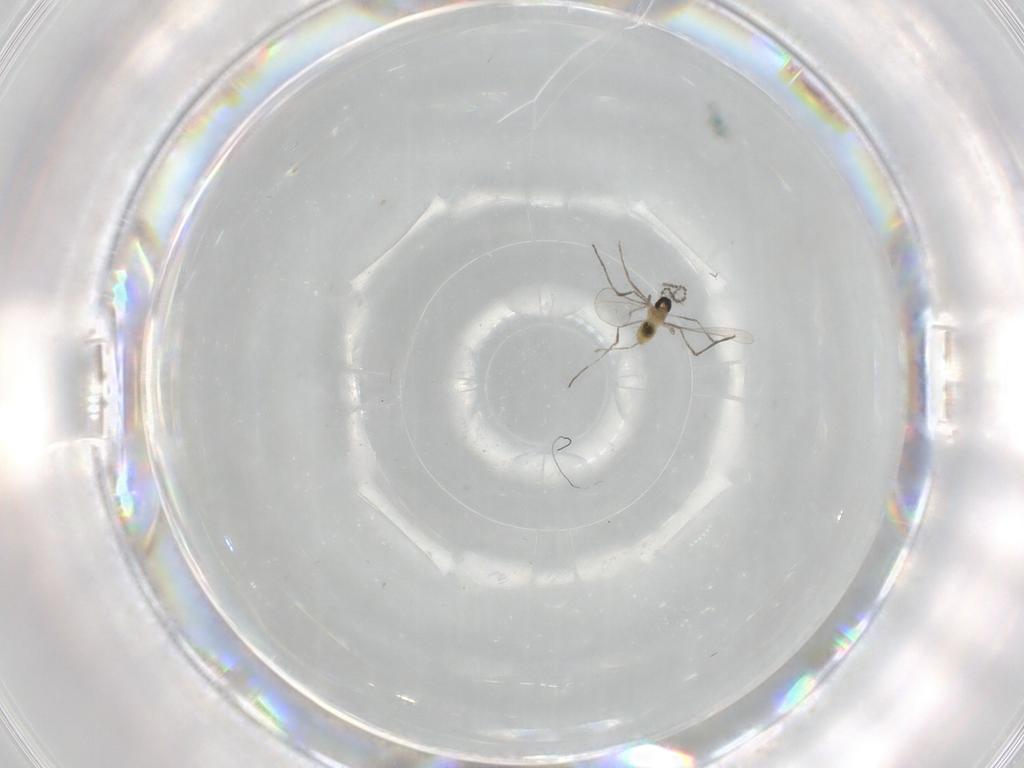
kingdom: Animalia
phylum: Arthropoda
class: Insecta
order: Diptera
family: Cecidomyiidae
